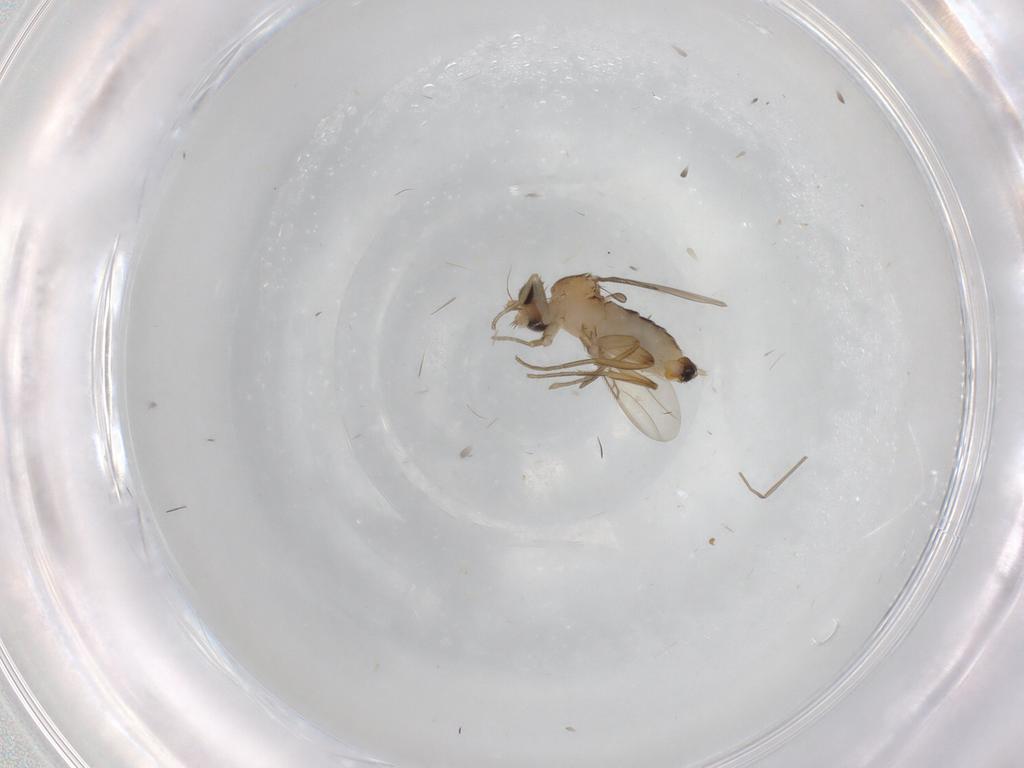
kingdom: Animalia
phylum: Arthropoda
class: Insecta
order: Diptera
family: Phoridae
